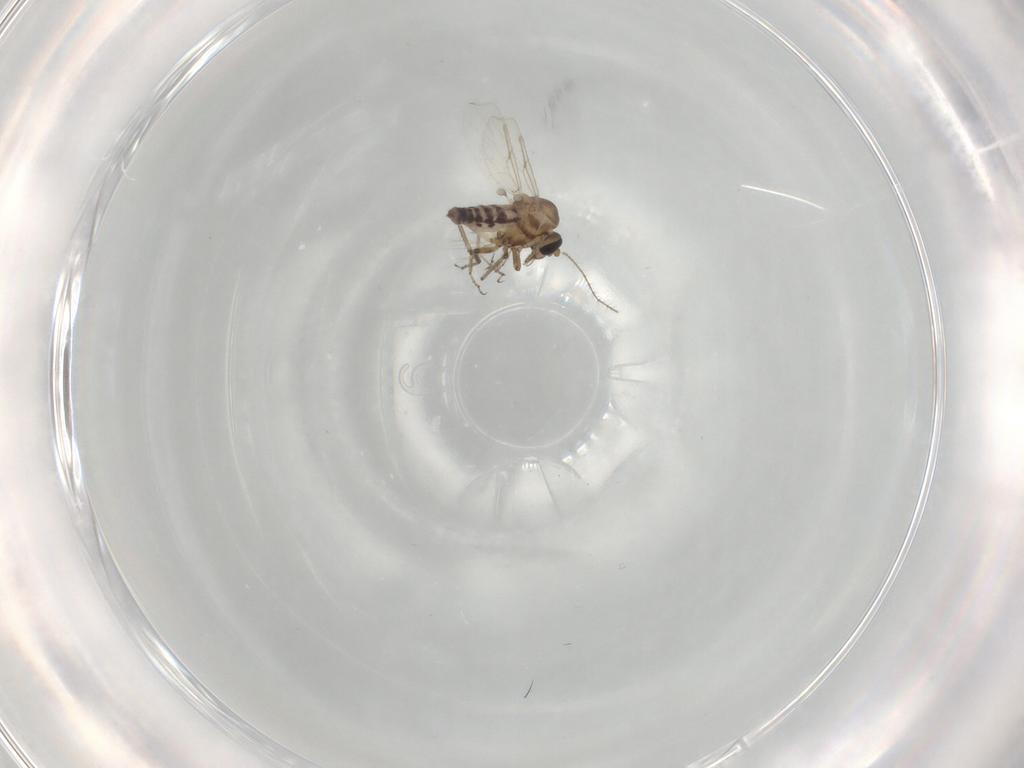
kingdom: Animalia
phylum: Arthropoda
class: Insecta
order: Diptera
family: Ceratopogonidae
